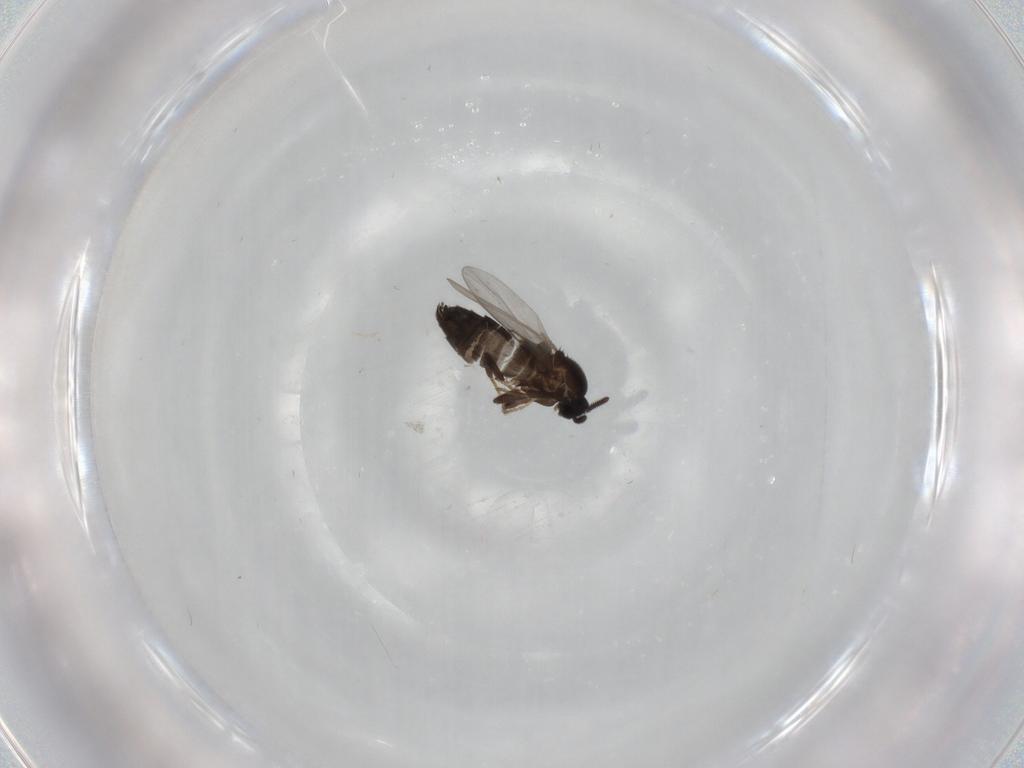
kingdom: Animalia
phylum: Arthropoda
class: Insecta
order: Diptera
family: Scatopsidae
